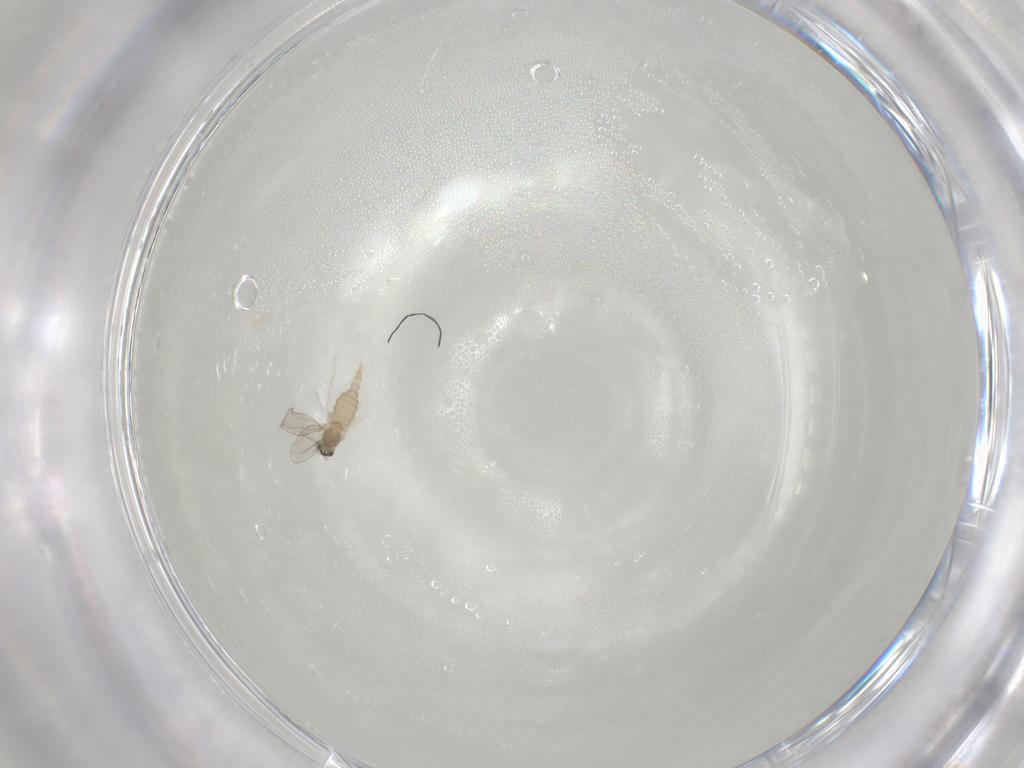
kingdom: Animalia
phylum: Arthropoda
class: Insecta
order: Diptera
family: Cecidomyiidae
